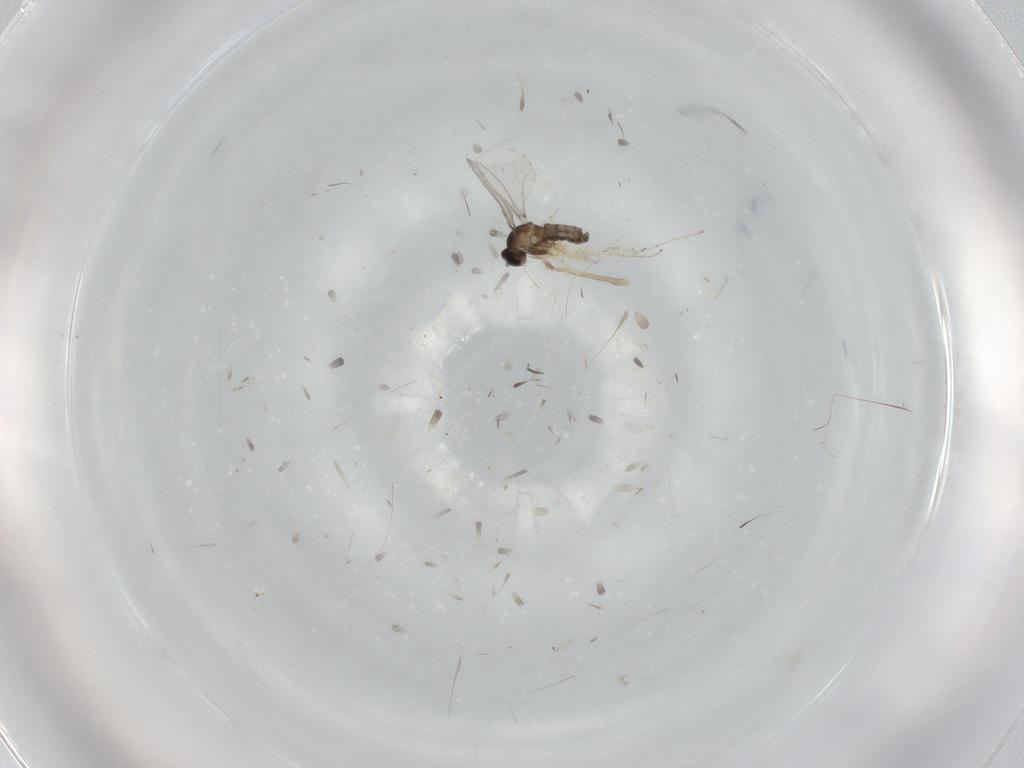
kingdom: Animalia
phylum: Arthropoda
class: Insecta
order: Diptera
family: Cecidomyiidae
